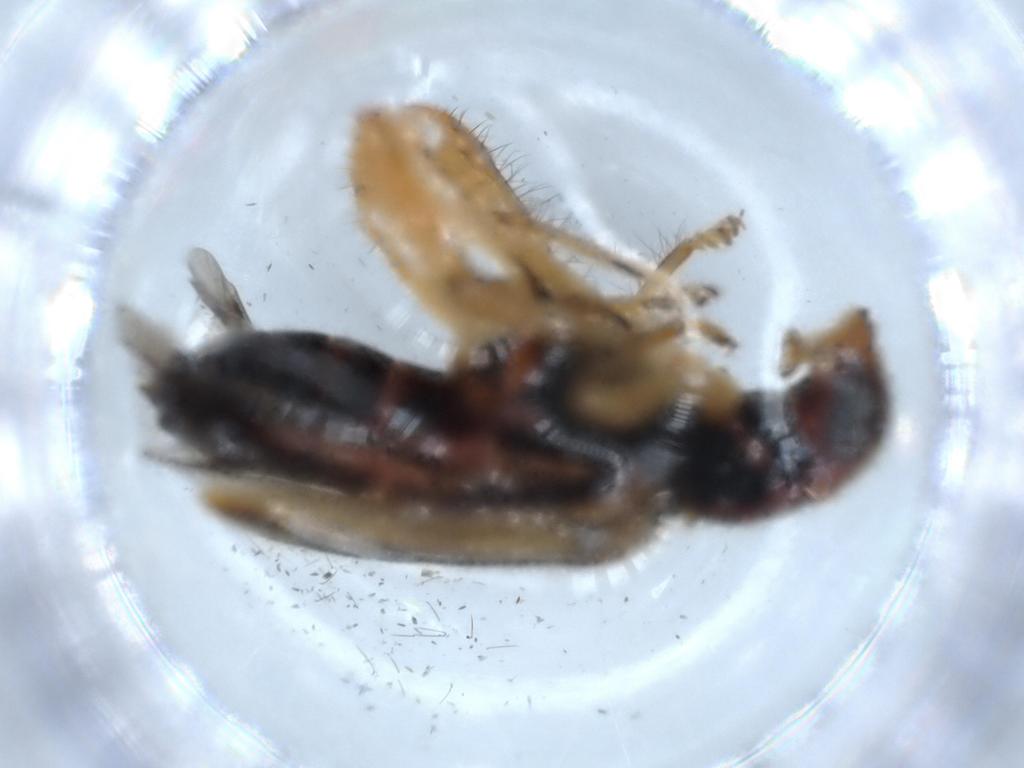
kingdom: Animalia
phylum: Arthropoda
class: Insecta
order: Coleoptera
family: Cleridae
